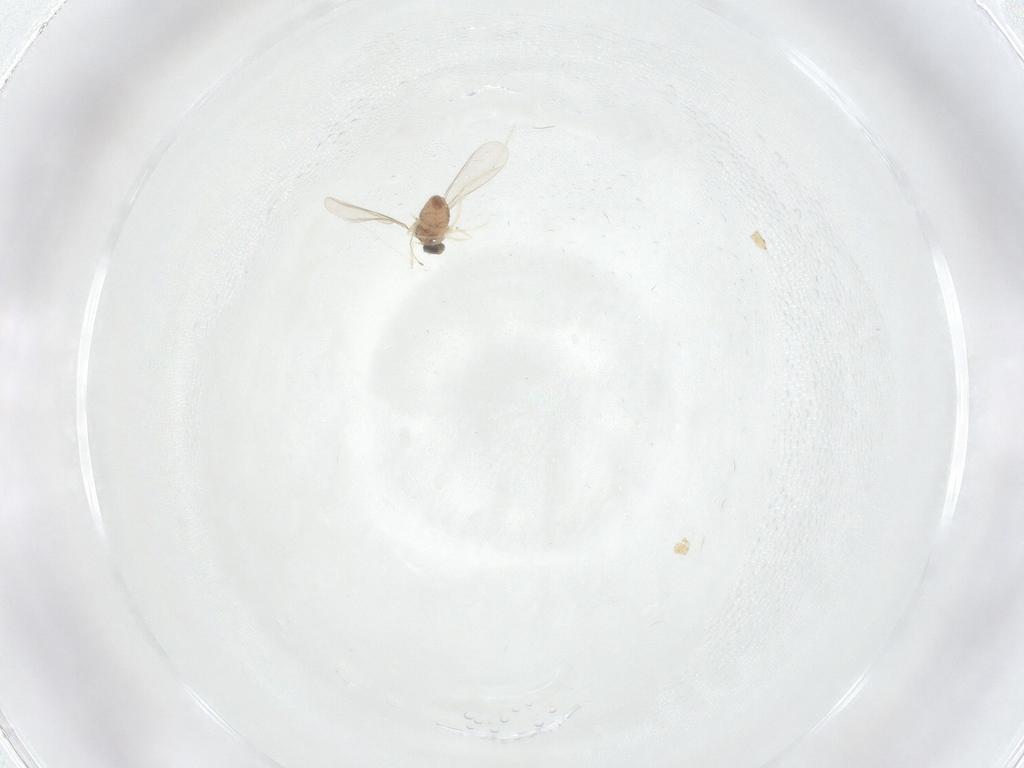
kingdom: Animalia
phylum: Arthropoda
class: Insecta
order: Diptera
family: Cecidomyiidae
